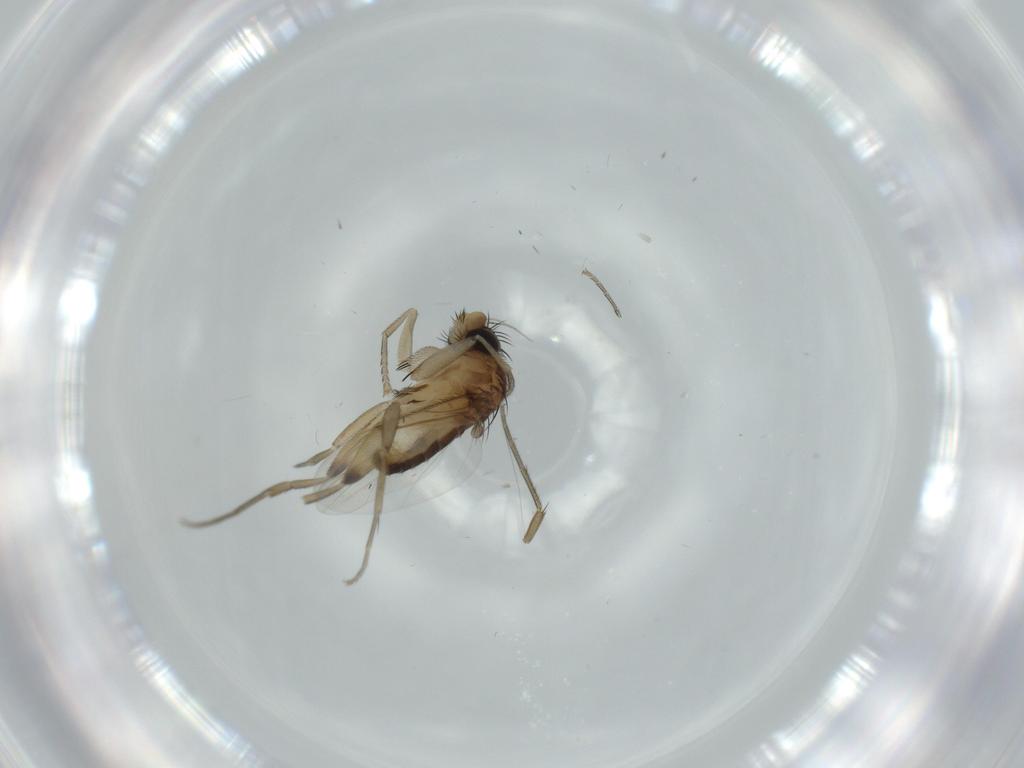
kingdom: Animalia
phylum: Arthropoda
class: Insecta
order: Diptera
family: Phoridae
